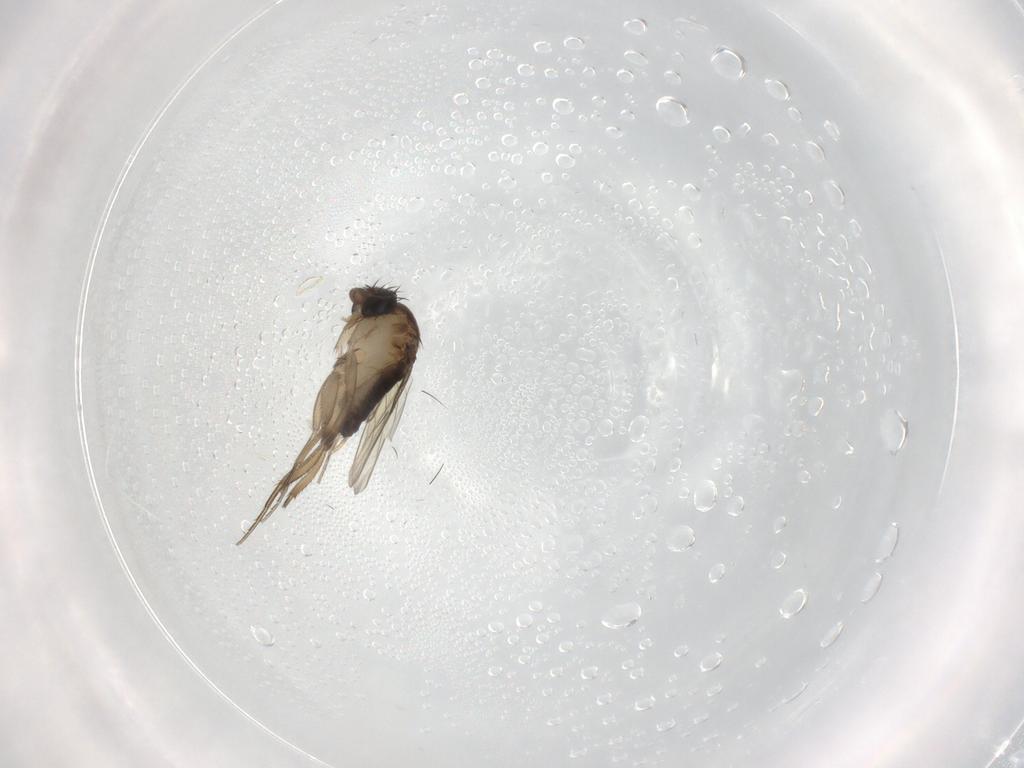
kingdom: Animalia
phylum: Arthropoda
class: Insecta
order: Diptera
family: Phoridae
